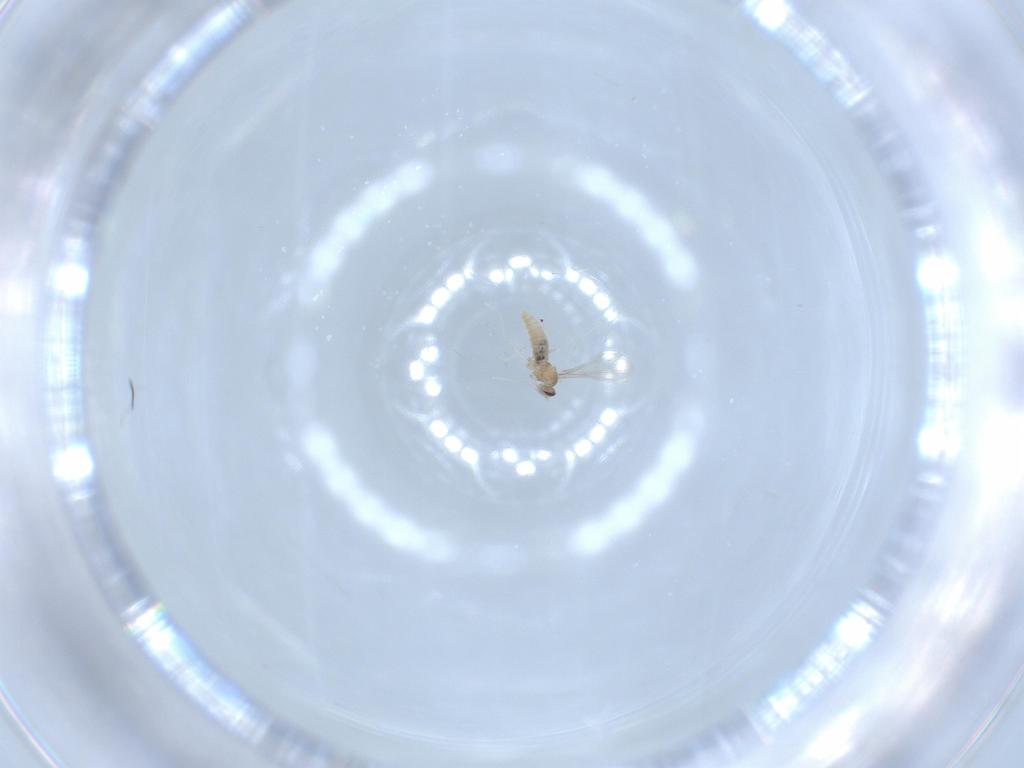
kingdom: Animalia
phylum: Arthropoda
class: Insecta
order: Diptera
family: Cecidomyiidae
